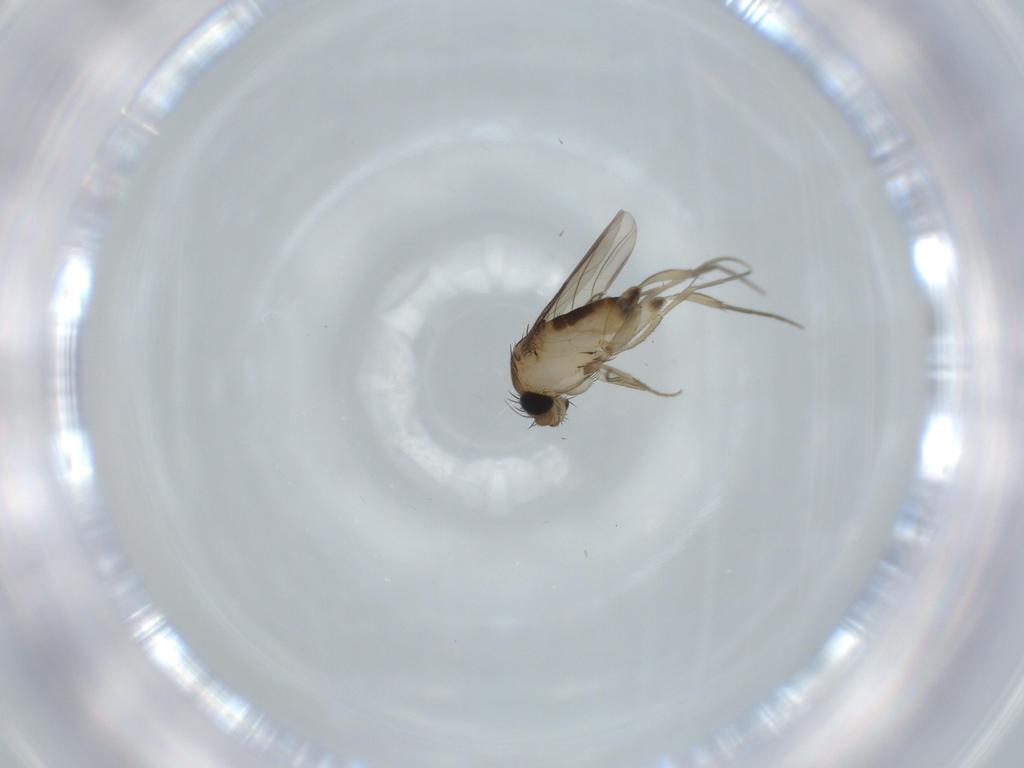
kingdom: Animalia
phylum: Arthropoda
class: Insecta
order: Diptera
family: Phoridae
